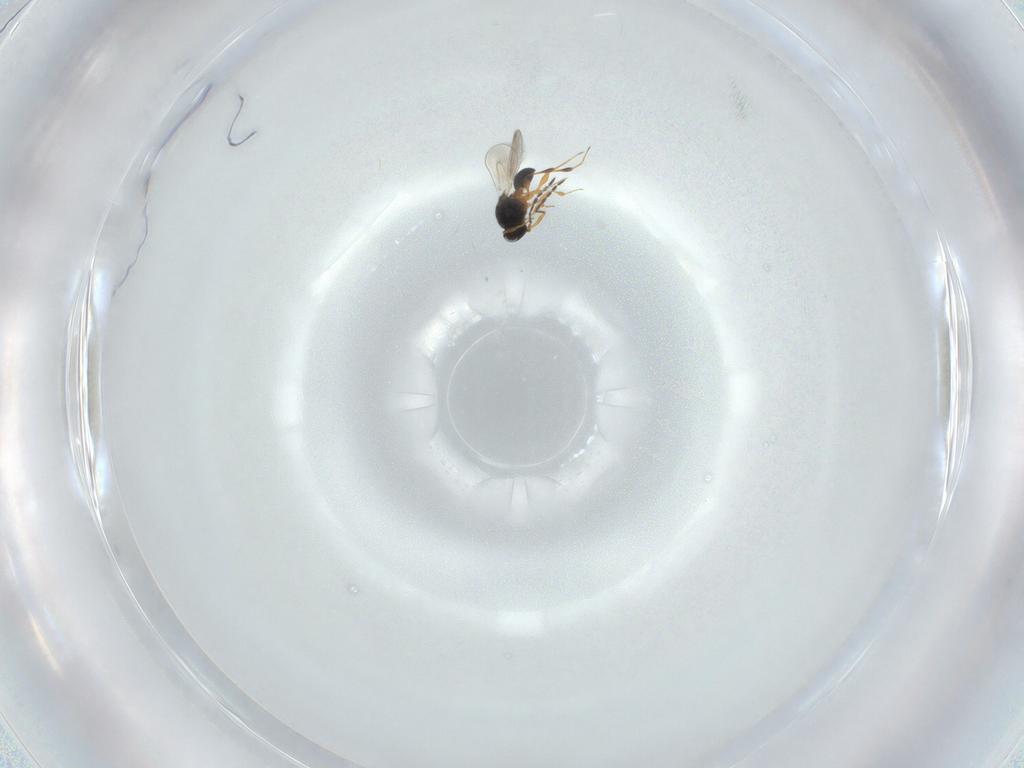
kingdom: Animalia
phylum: Arthropoda
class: Insecta
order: Hymenoptera
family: Platygastridae
